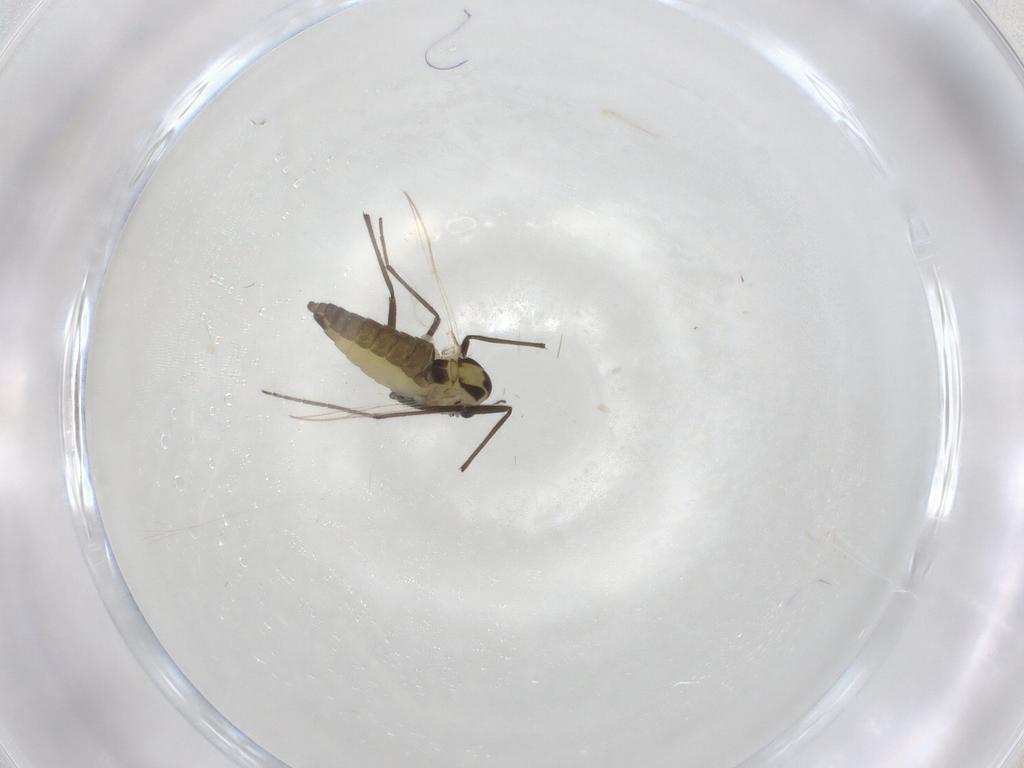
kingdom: Animalia
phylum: Arthropoda
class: Insecta
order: Diptera
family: Chironomidae
